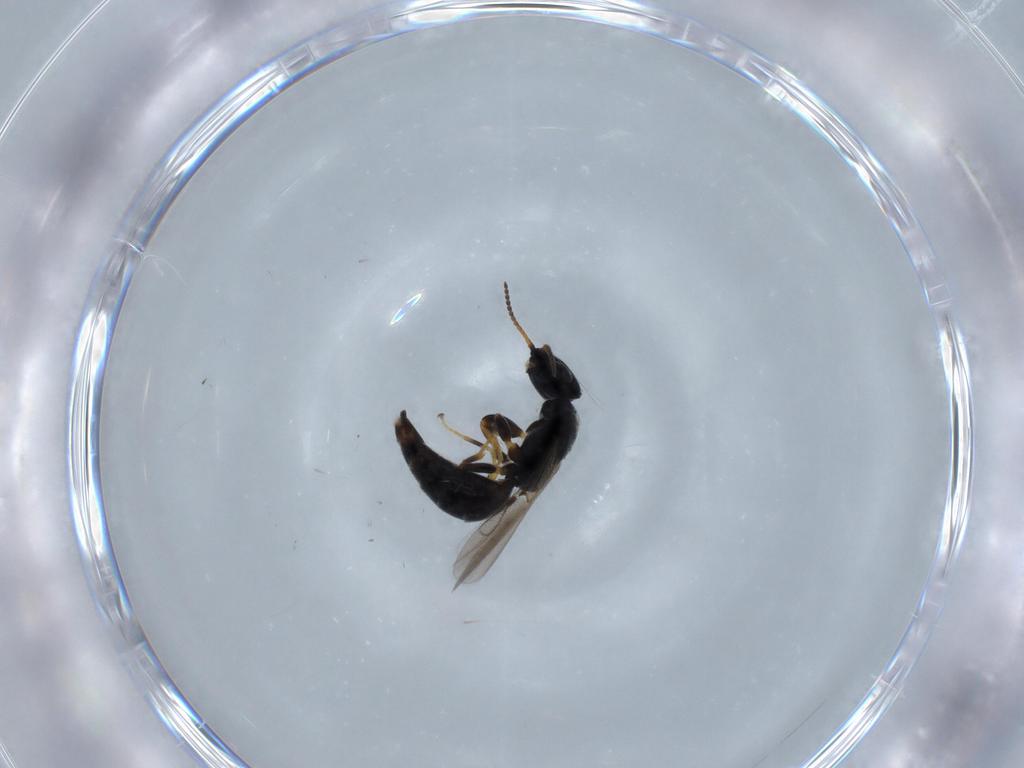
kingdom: Animalia
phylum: Arthropoda
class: Insecta
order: Hymenoptera
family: Bethylidae
